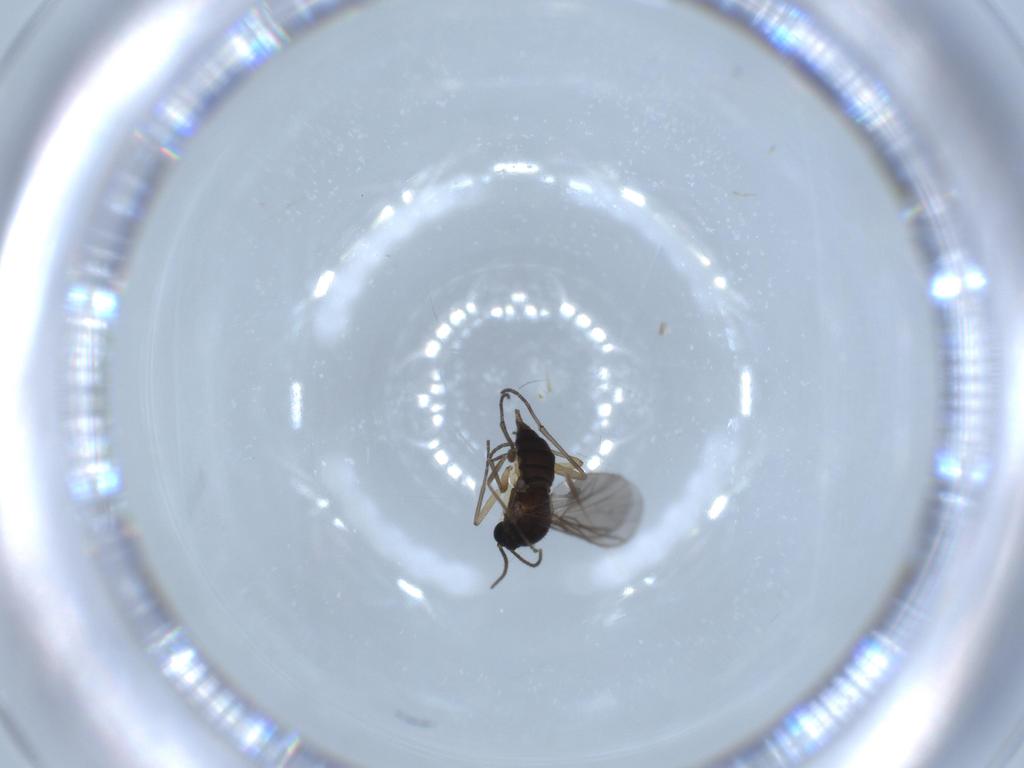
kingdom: Animalia
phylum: Arthropoda
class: Insecta
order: Diptera
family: Sciaridae
